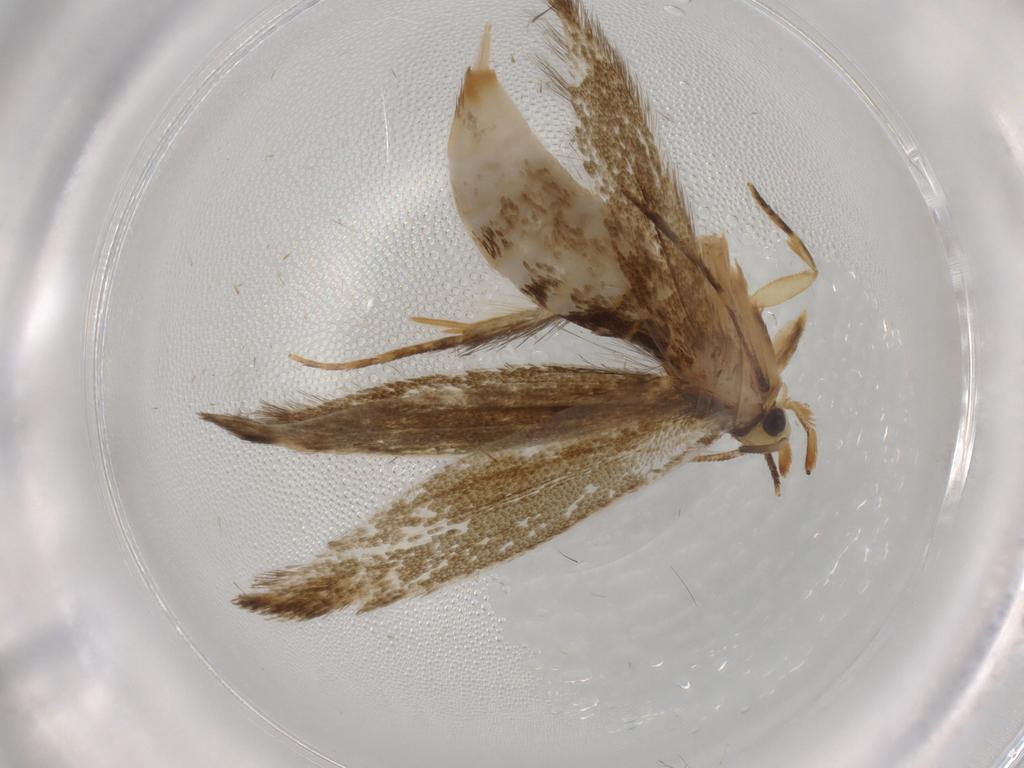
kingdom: Animalia
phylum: Arthropoda
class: Insecta
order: Lepidoptera
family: Tineidae
